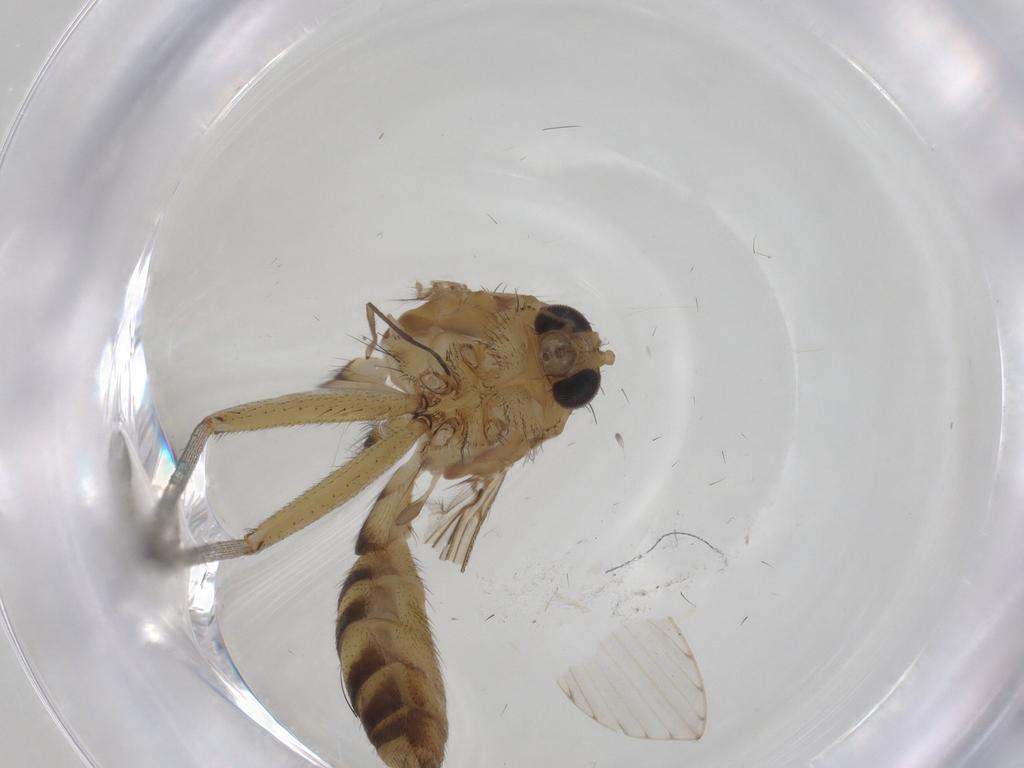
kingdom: Animalia
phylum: Arthropoda
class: Insecta
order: Diptera
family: Mycetophilidae
